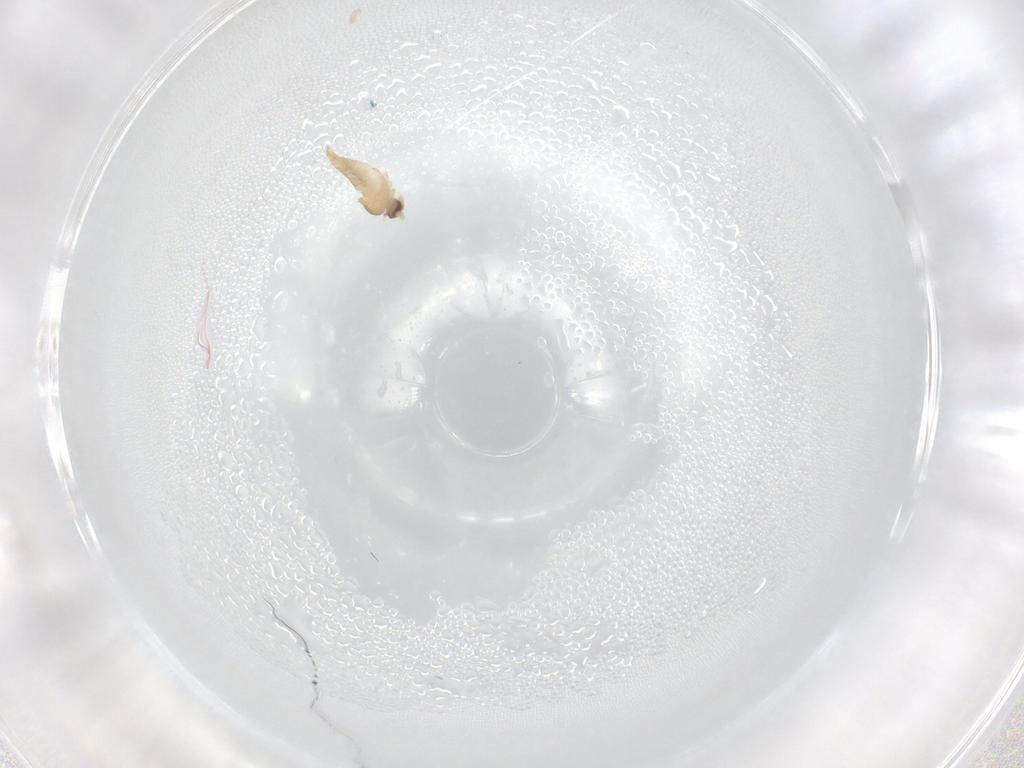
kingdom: Animalia
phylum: Arthropoda
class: Insecta
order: Diptera
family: Cecidomyiidae
